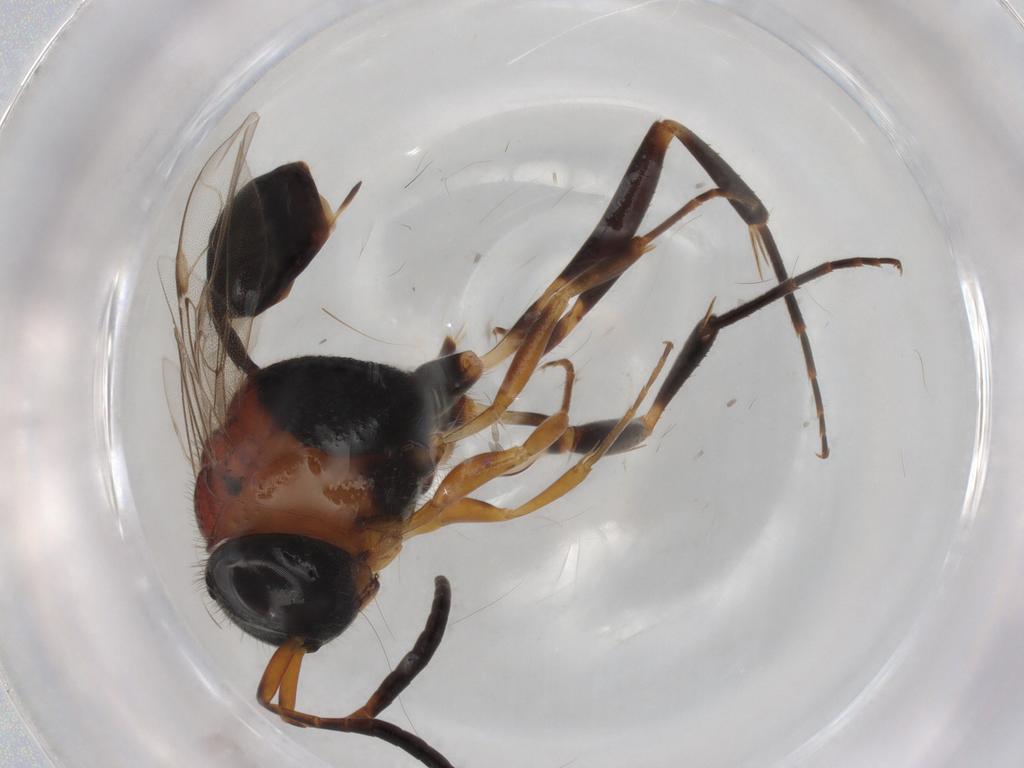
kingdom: Animalia
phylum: Arthropoda
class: Insecta
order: Hymenoptera
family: Evaniidae
